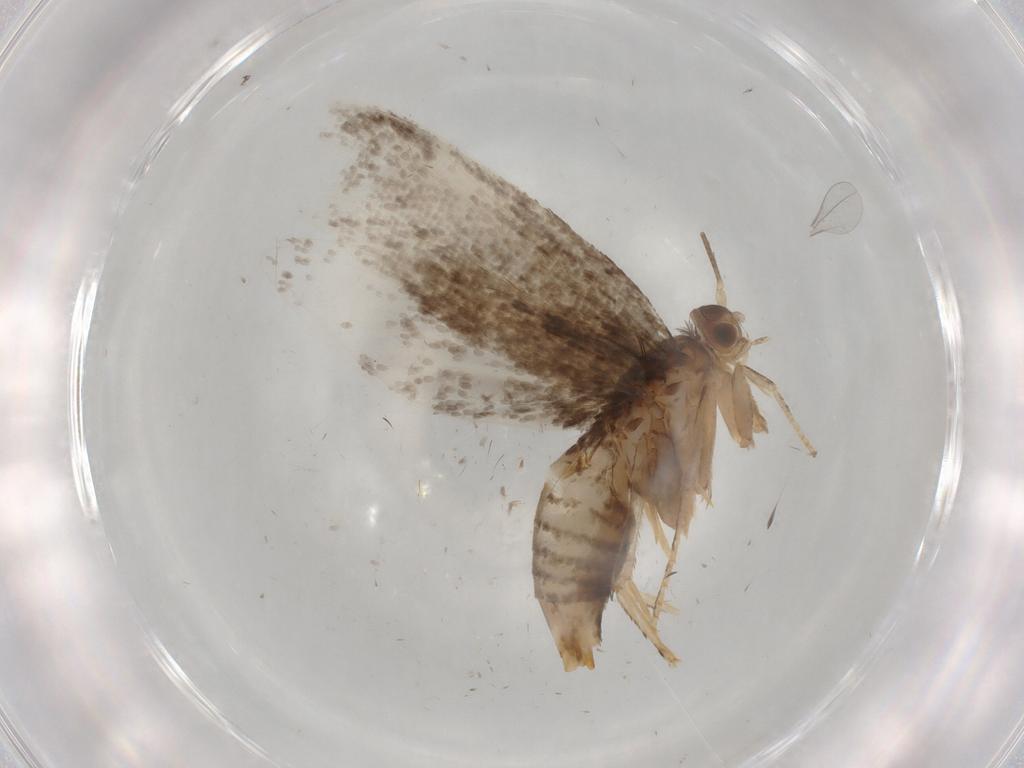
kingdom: Animalia
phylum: Arthropoda
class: Insecta
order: Lepidoptera
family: Tineidae
